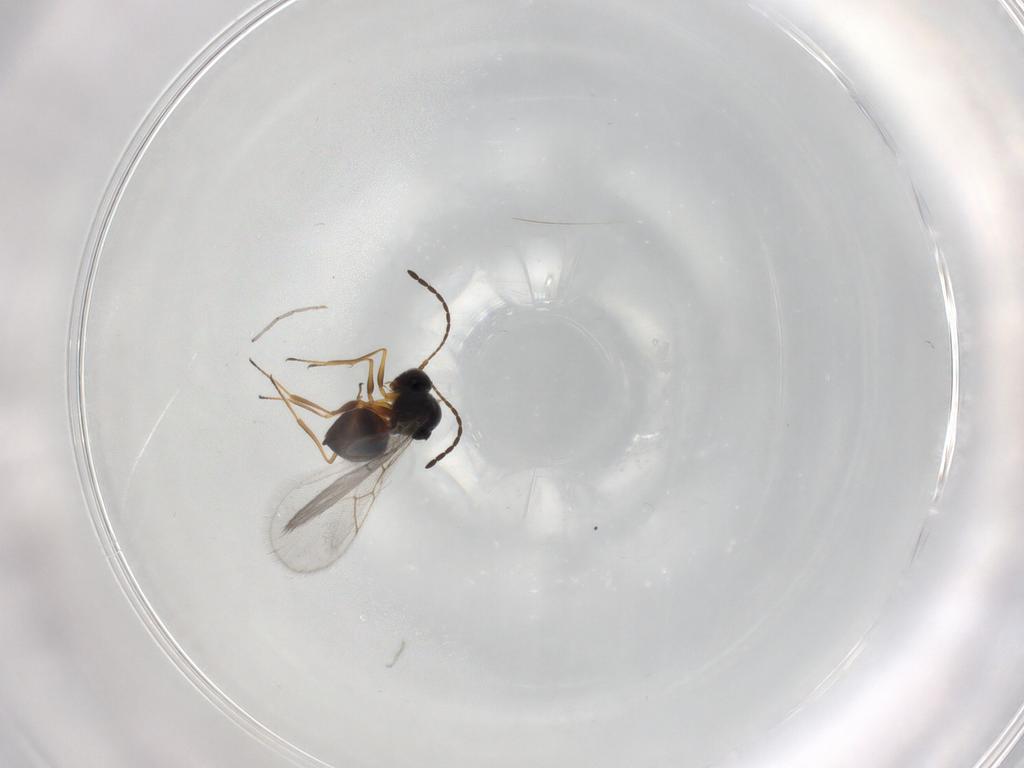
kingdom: Animalia
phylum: Arthropoda
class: Insecta
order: Hymenoptera
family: Figitidae
